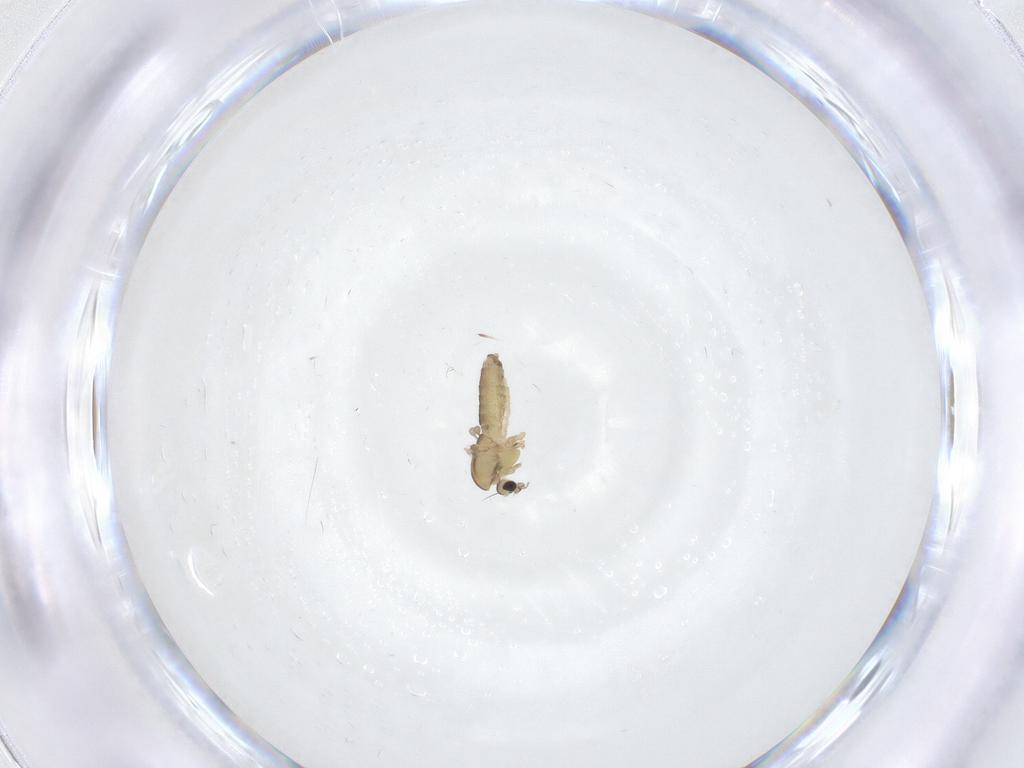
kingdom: Animalia
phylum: Arthropoda
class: Insecta
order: Diptera
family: Chironomidae
